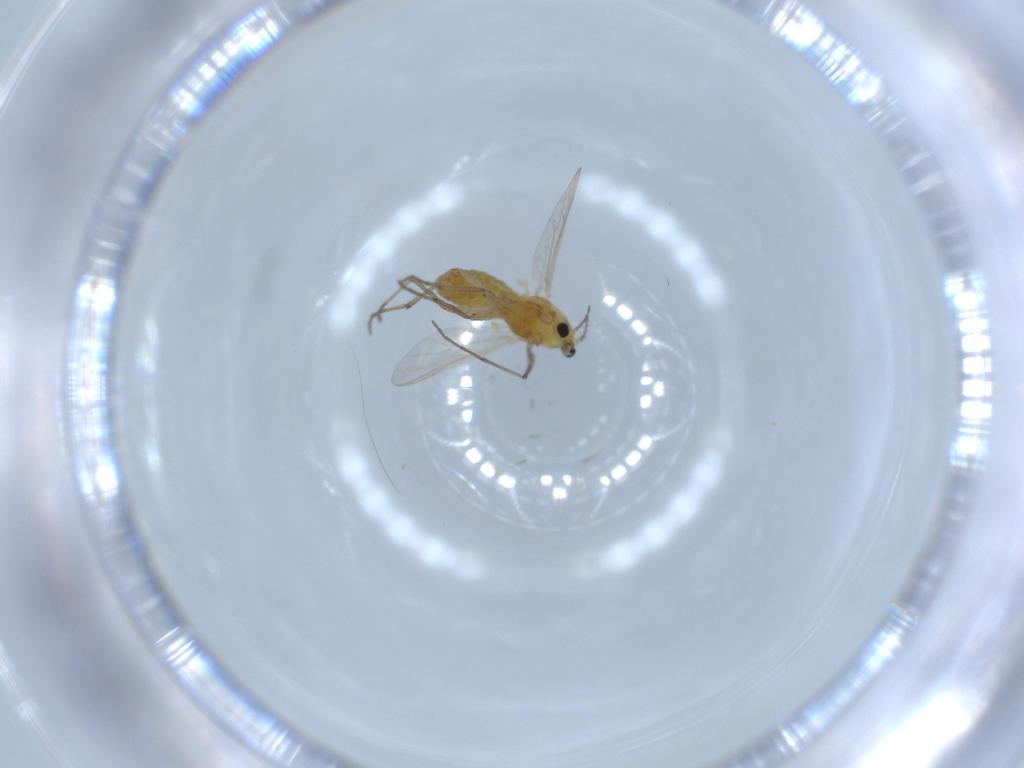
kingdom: Animalia
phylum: Arthropoda
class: Insecta
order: Diptera
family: Chironomidae
